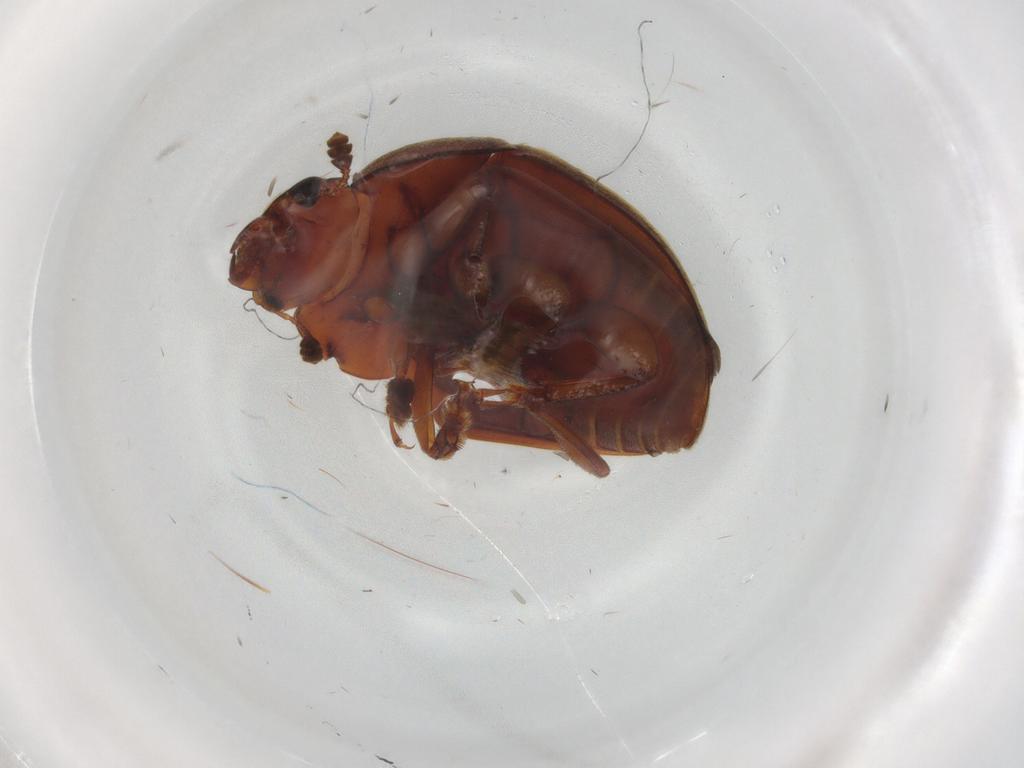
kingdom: Animalia
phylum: Arthropoda
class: Insecta
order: Coleoptera
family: Nitidulidae
